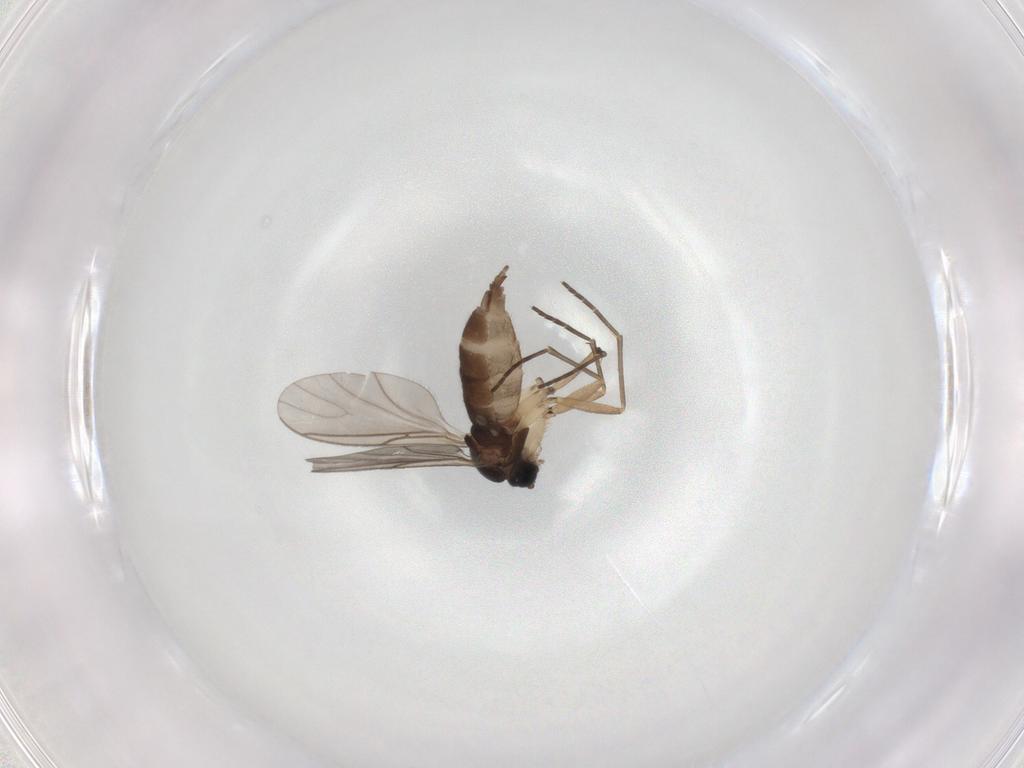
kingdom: Animalia
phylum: Arthropoda
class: Insecta
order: Diptera
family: Sciaridae
